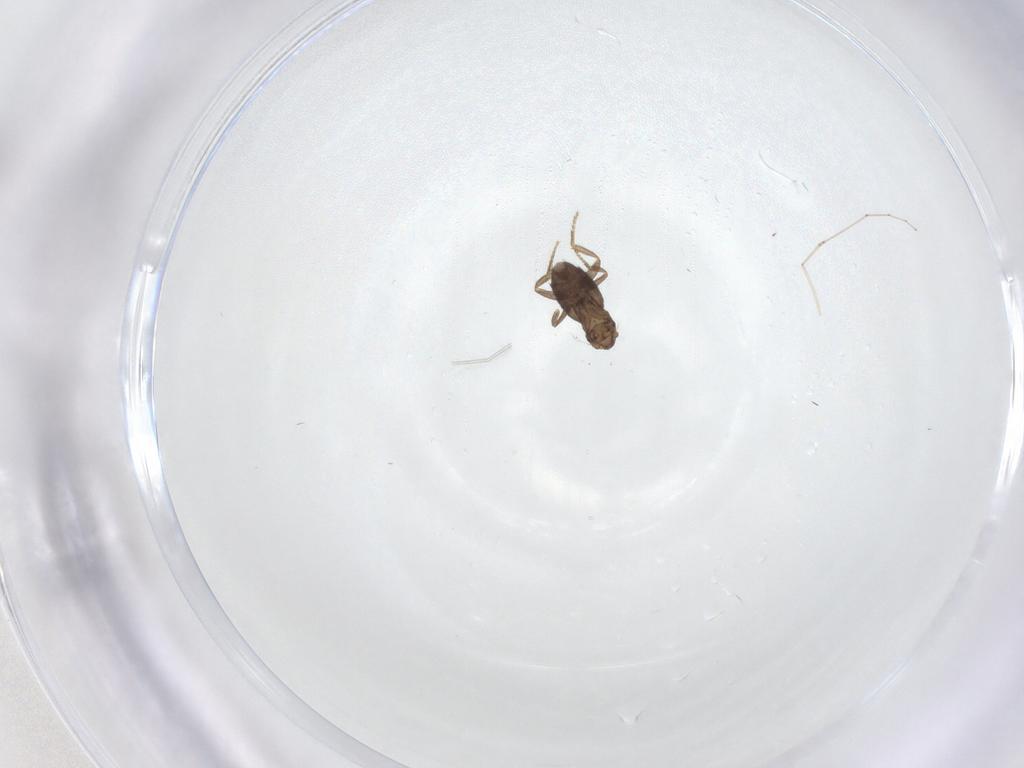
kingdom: Animalia
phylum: Arthropoda
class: Insecta
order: Diptera
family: Phoridae
